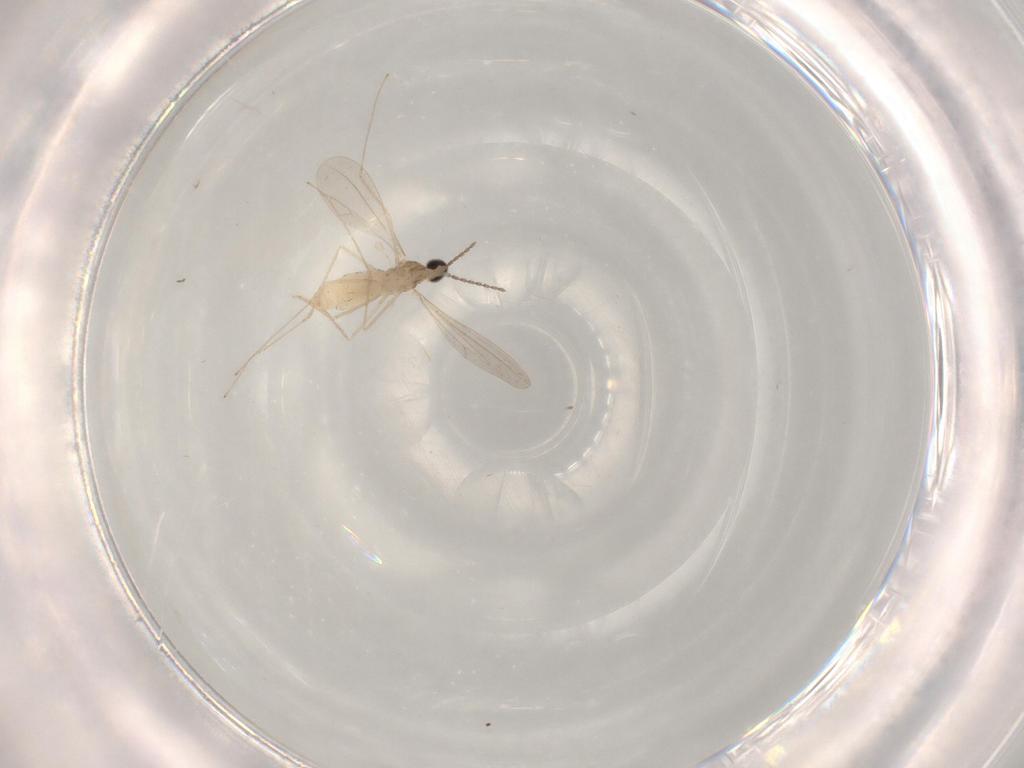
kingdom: Animalia
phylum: Arthropoda
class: Insecta
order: Diptera
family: Cecidomyiidae
